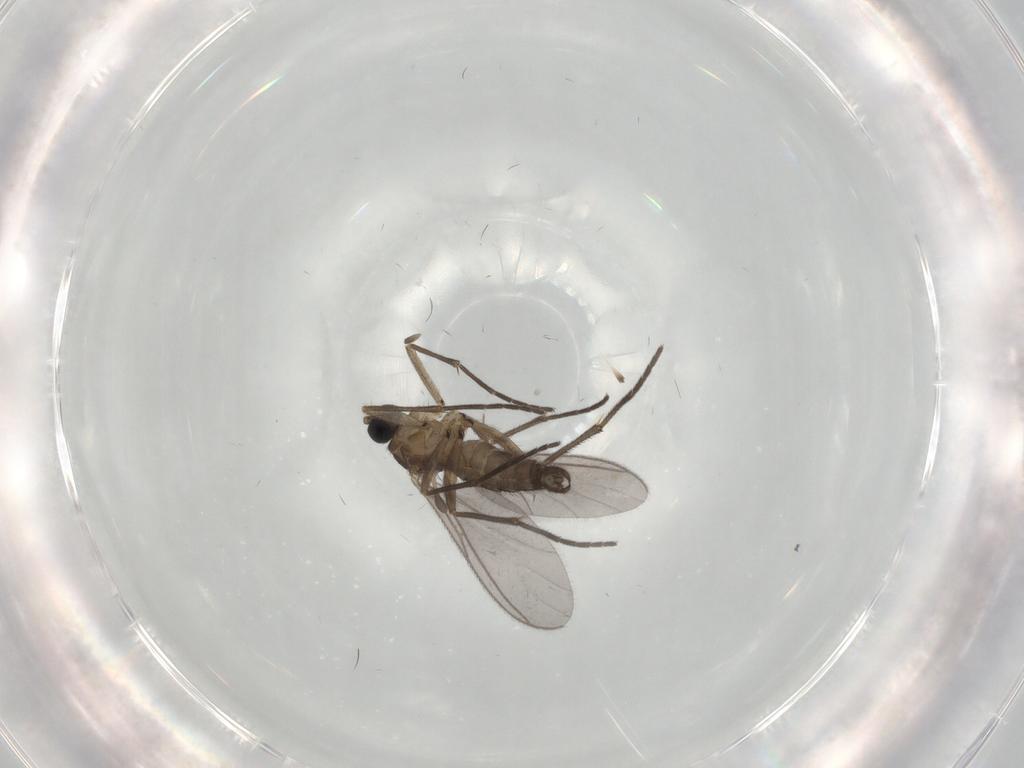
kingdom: Animalia
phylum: Arthropoda
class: Insecta
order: Diptera
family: Sciaridae
